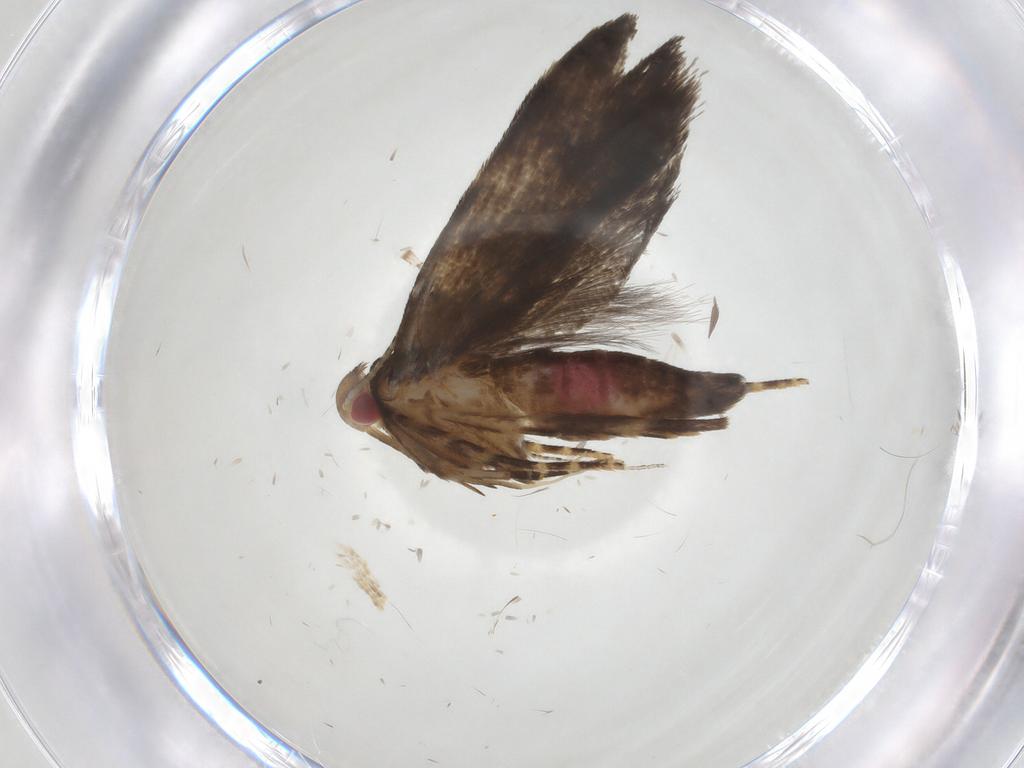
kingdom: Animalia
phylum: Arthropoda
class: Insecta
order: Lepidoptera
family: Gelechiidae
